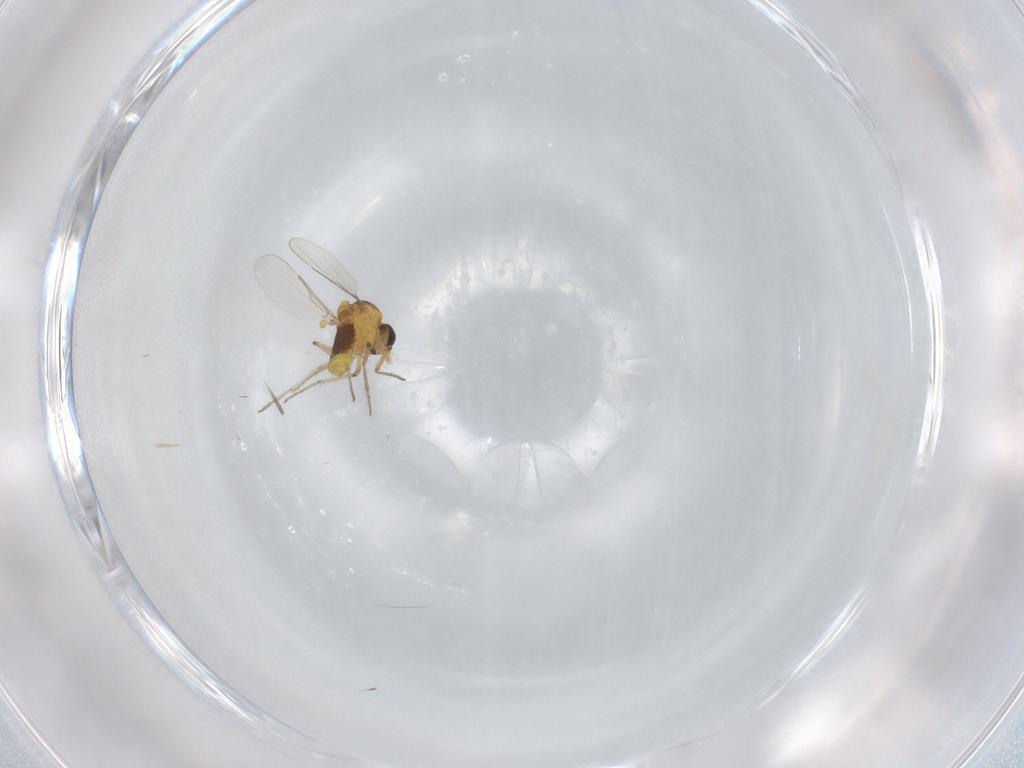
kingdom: Animalia
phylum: Arthropoda
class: Insecta
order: Diptera
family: Ceratopogonidae
